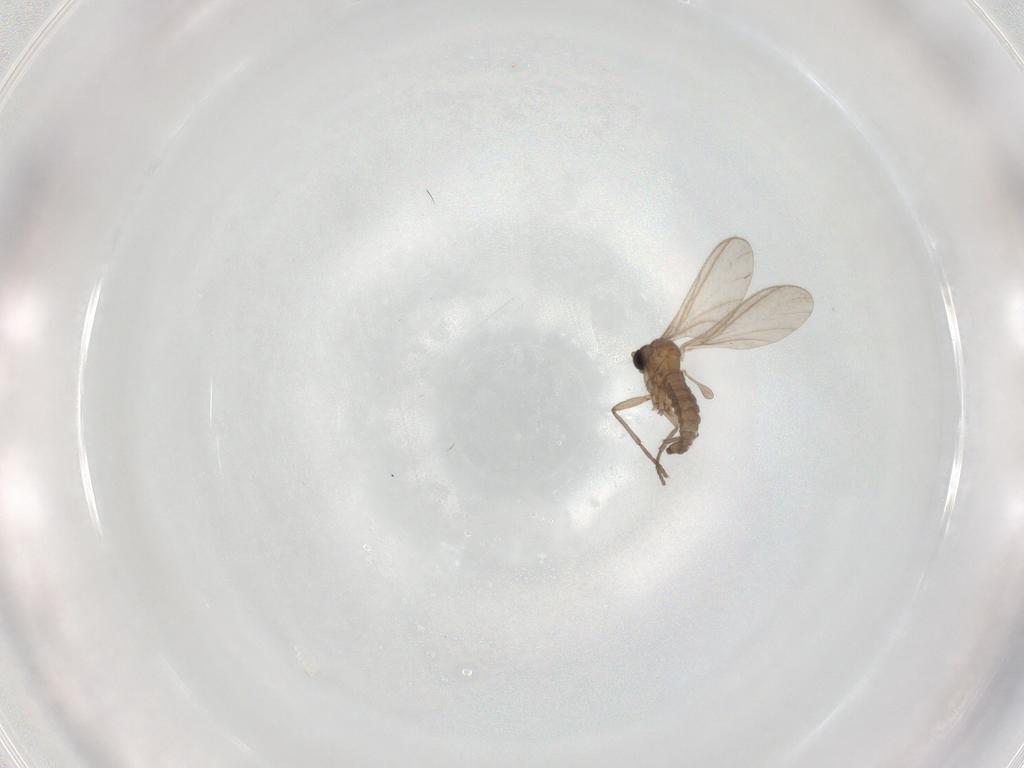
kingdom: Animalia
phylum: Arthropoda
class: Insecta
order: Diptera
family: Sciaridae
